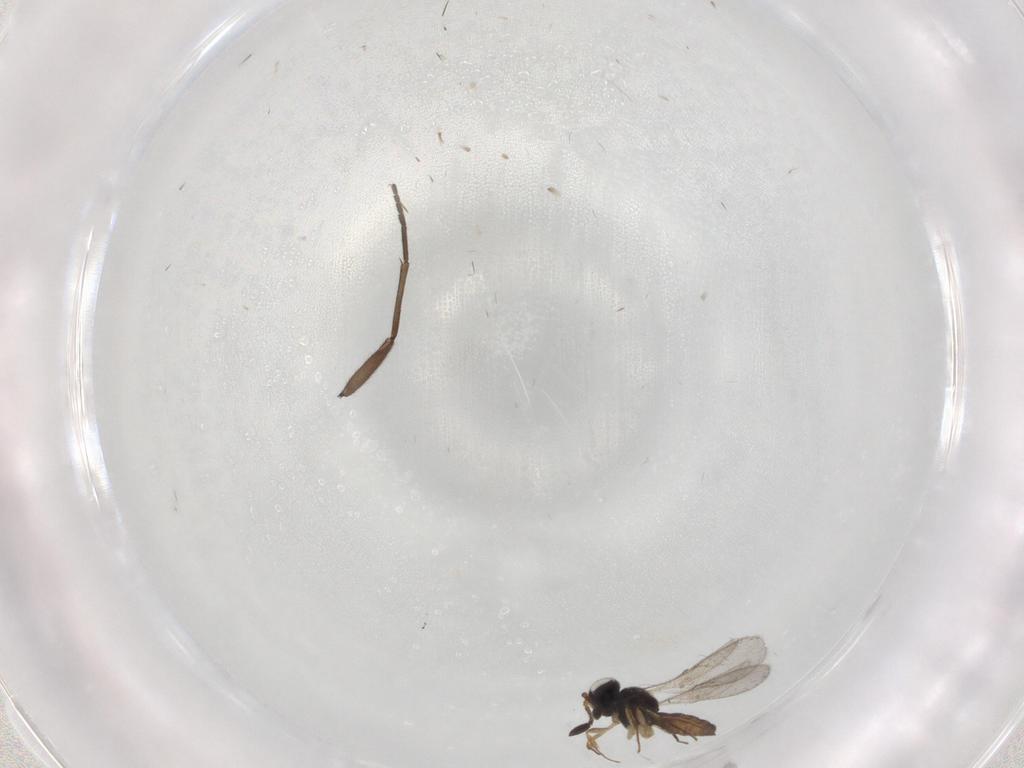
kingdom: Animalia
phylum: Arthropoda
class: Insecta
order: Hymenoptera
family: Scelionidae
